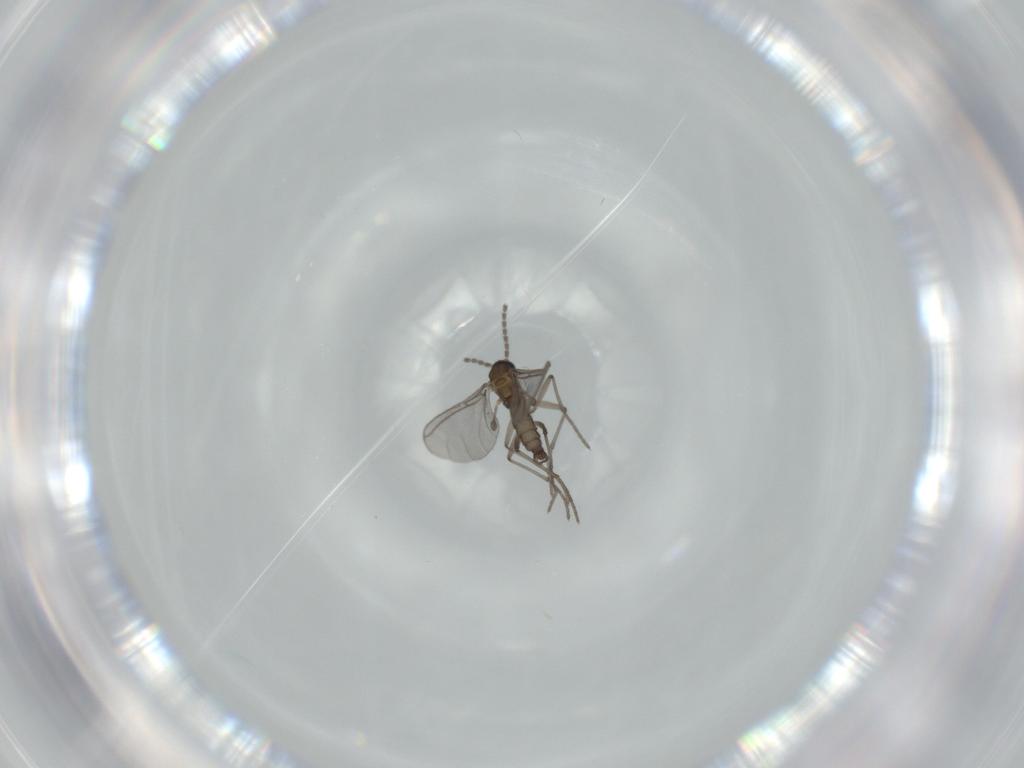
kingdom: Animalia
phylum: Arthropoda
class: Insecta
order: Diptera
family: Sciaridae
